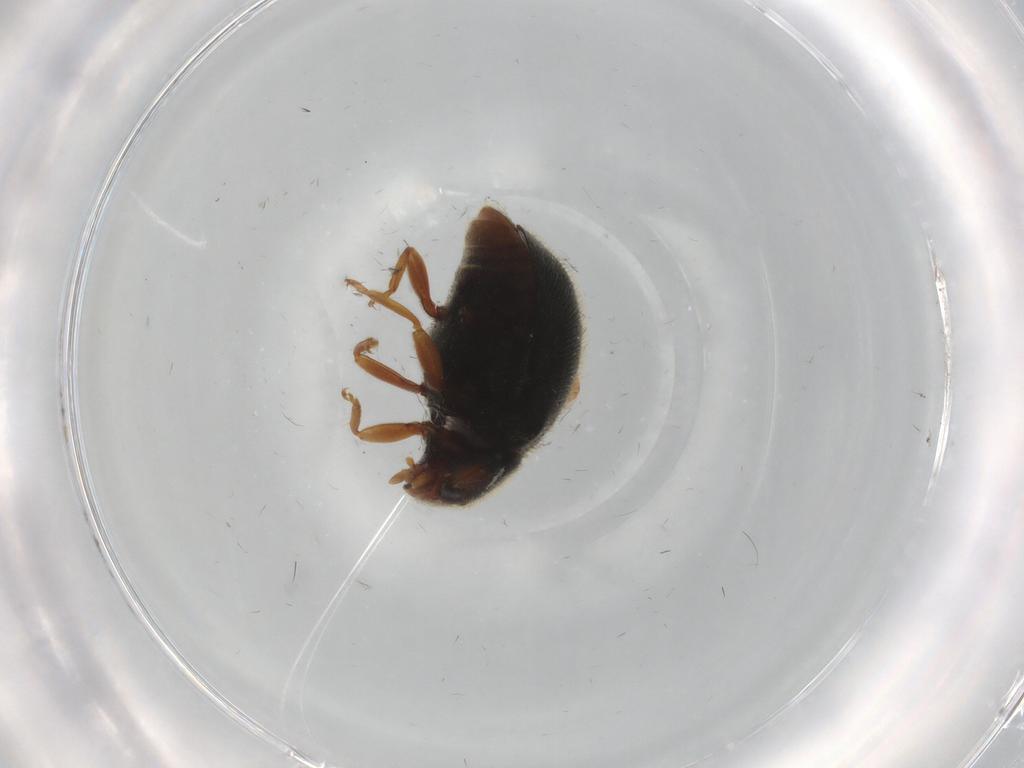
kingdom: Animalia
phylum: Arthropoda
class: Insecta
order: Coleoptera
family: Coccinellidae
